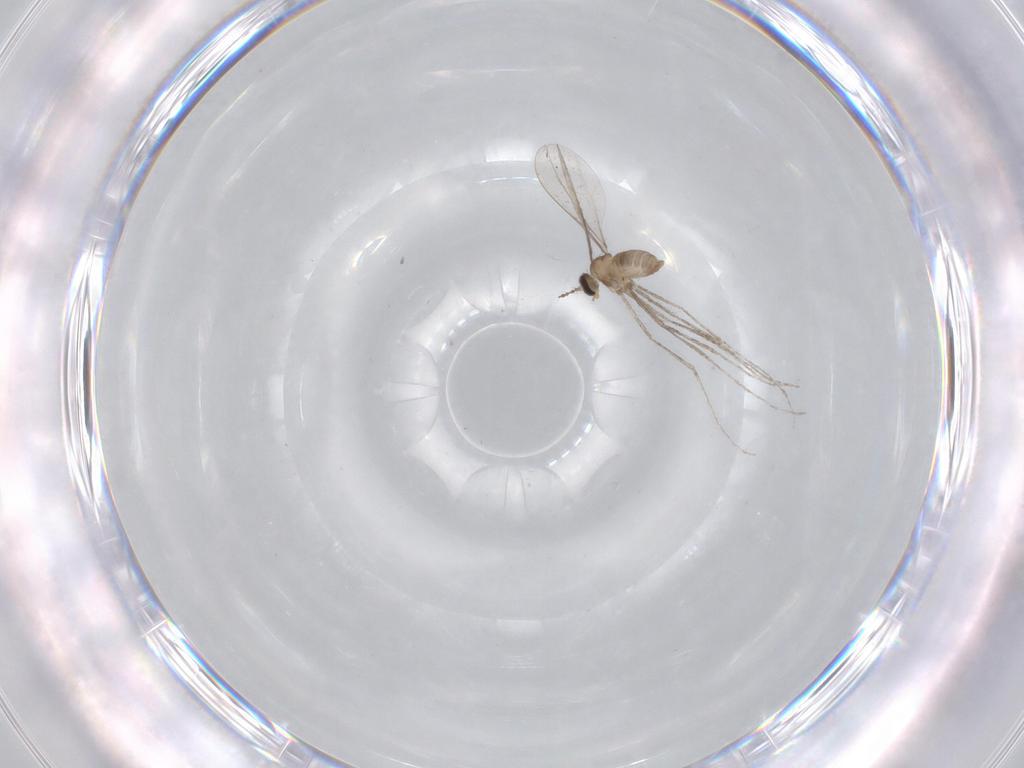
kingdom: Animalia
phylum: Arthropoda
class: Insecta
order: Diptera
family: Chironomidae
